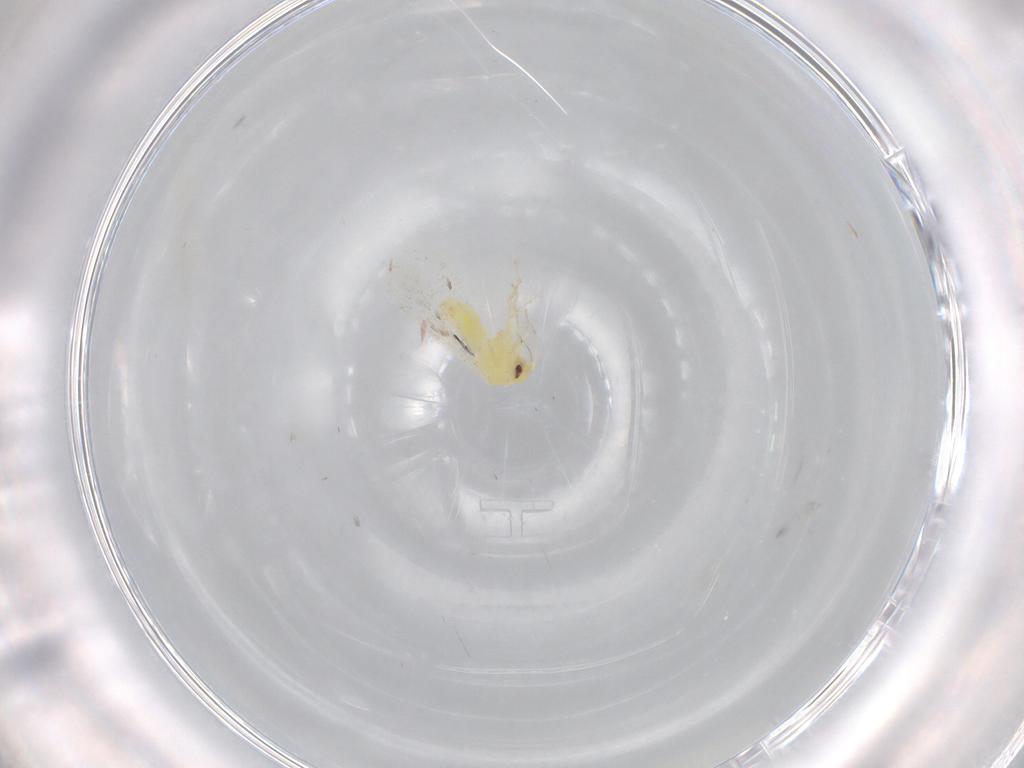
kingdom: Animalia
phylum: Arthropoda
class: Insecta
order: Hemiptera
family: Aleyrodidae
